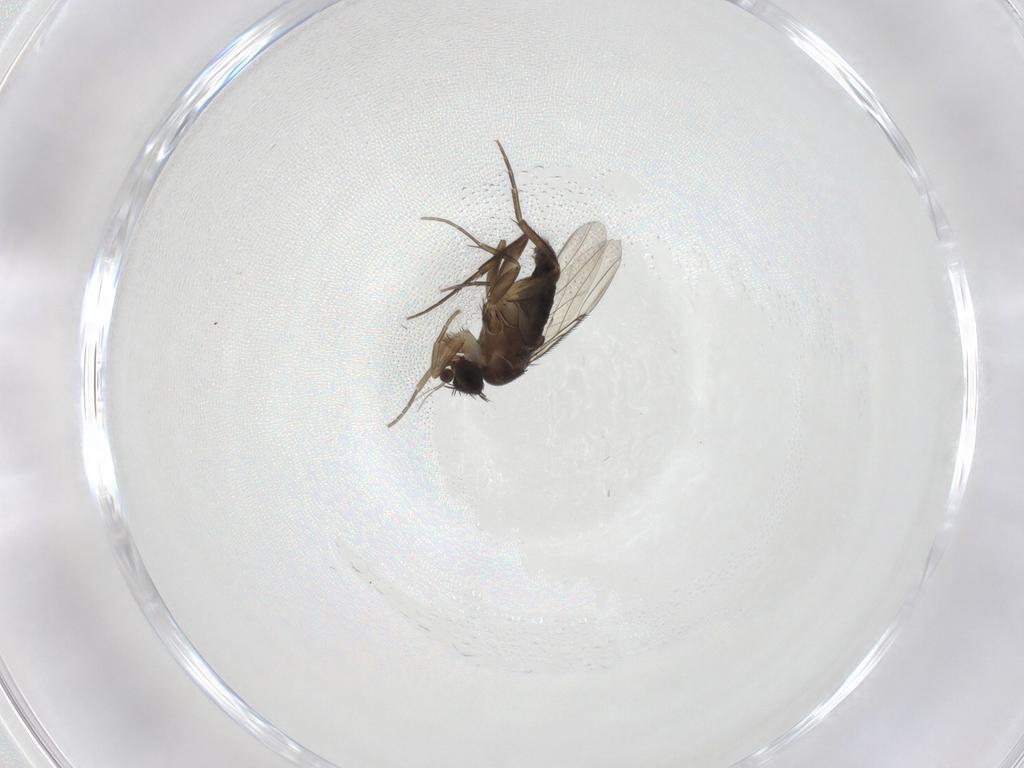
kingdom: Animalia
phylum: Arthropoda
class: Insecta
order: Diptera
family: Phoridae
